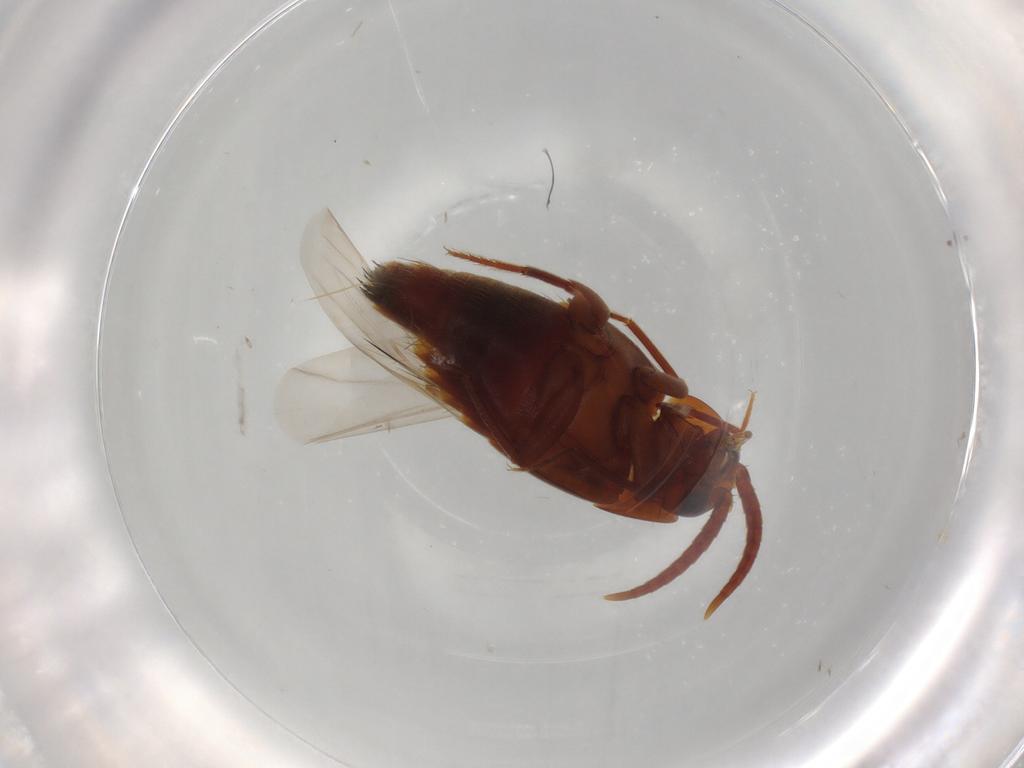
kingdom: Animalia
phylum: Arthropoda
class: Insecta
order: Coleoptera
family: Staphylinidae
